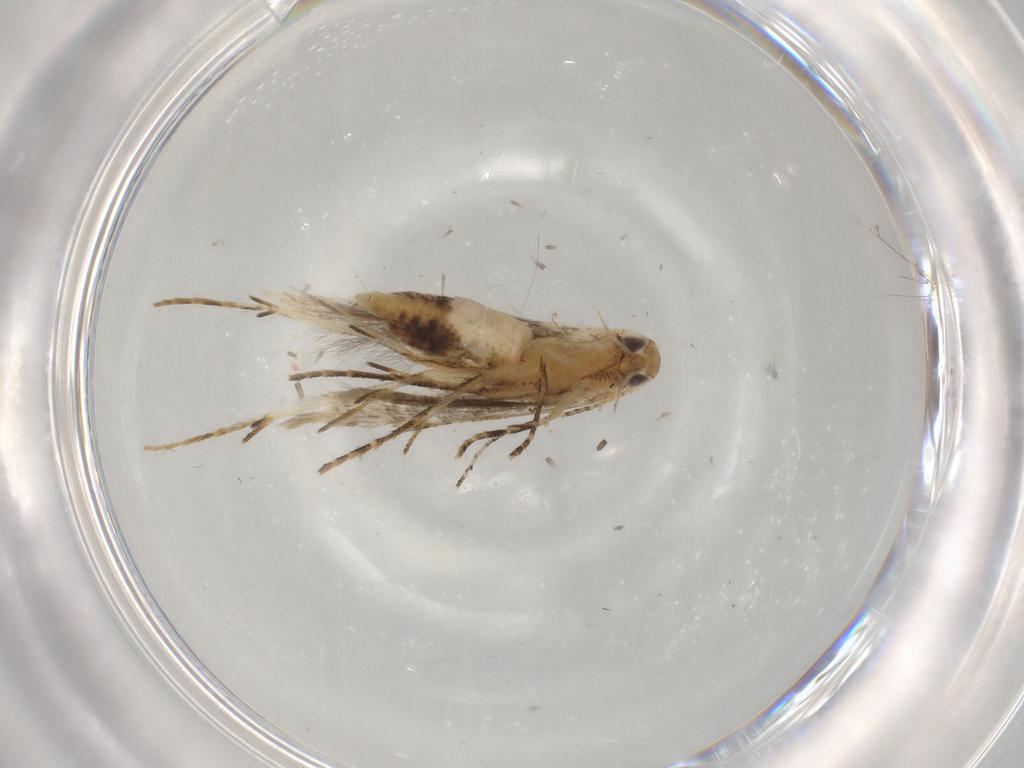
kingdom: Animalia
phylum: Arthropoda
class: Insecta
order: Lepidoptera
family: Crambidae
